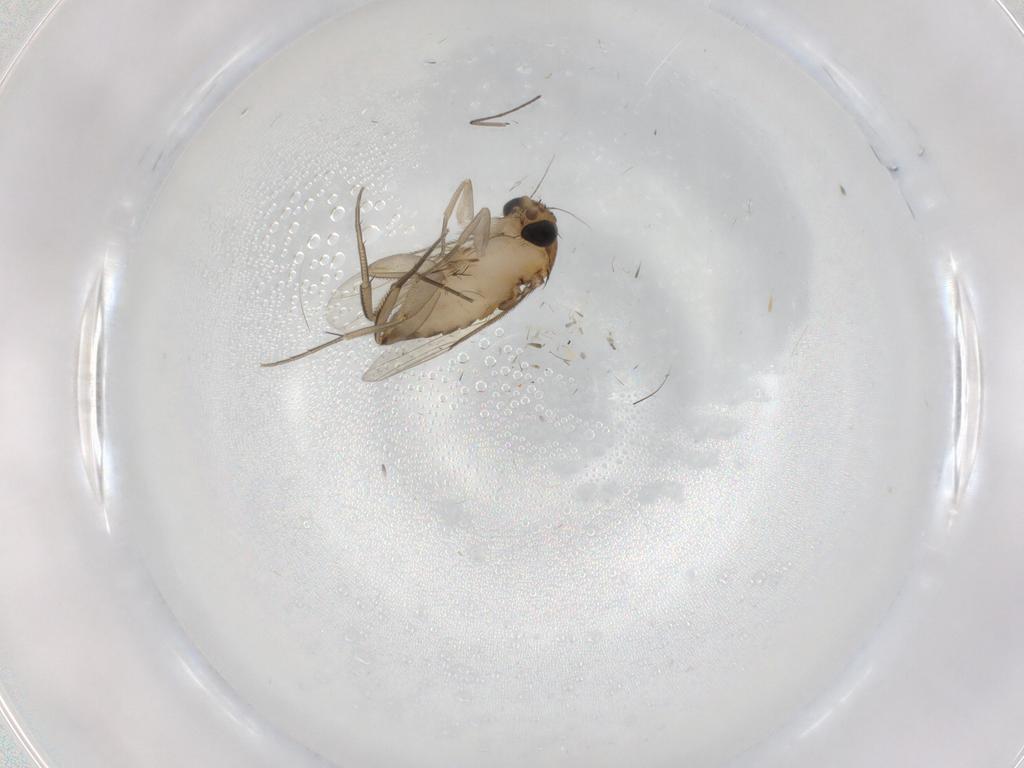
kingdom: Animalia
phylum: Arthropoda
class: Insecta
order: Diptera
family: Phoridae
